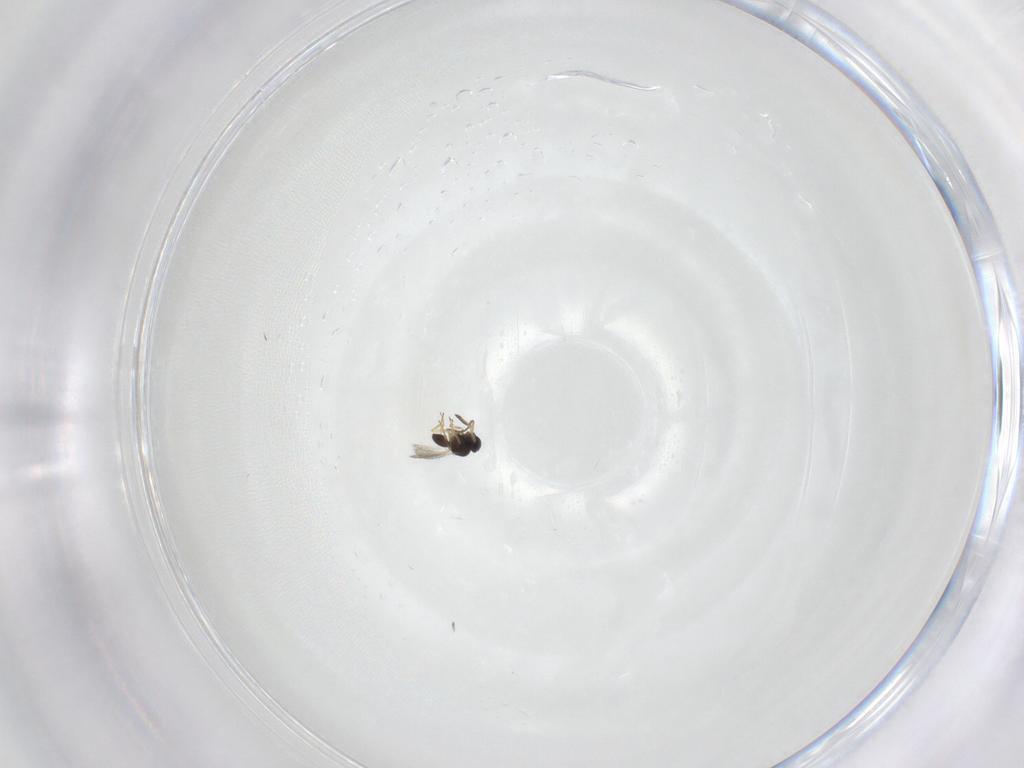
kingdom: Animalia
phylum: Arthropoda
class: Insecta
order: Hymenoptera
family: Scelionidae
